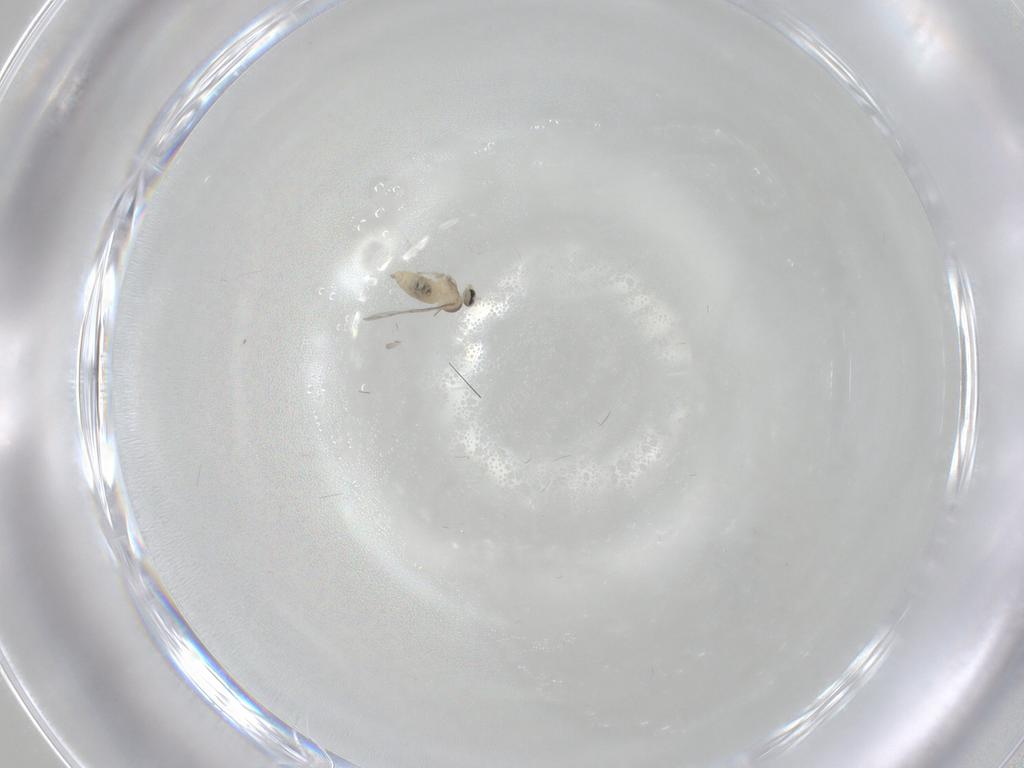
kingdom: Animalia
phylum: Arthropoda
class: Insecta
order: Diptera
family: Cecidomyiidae
